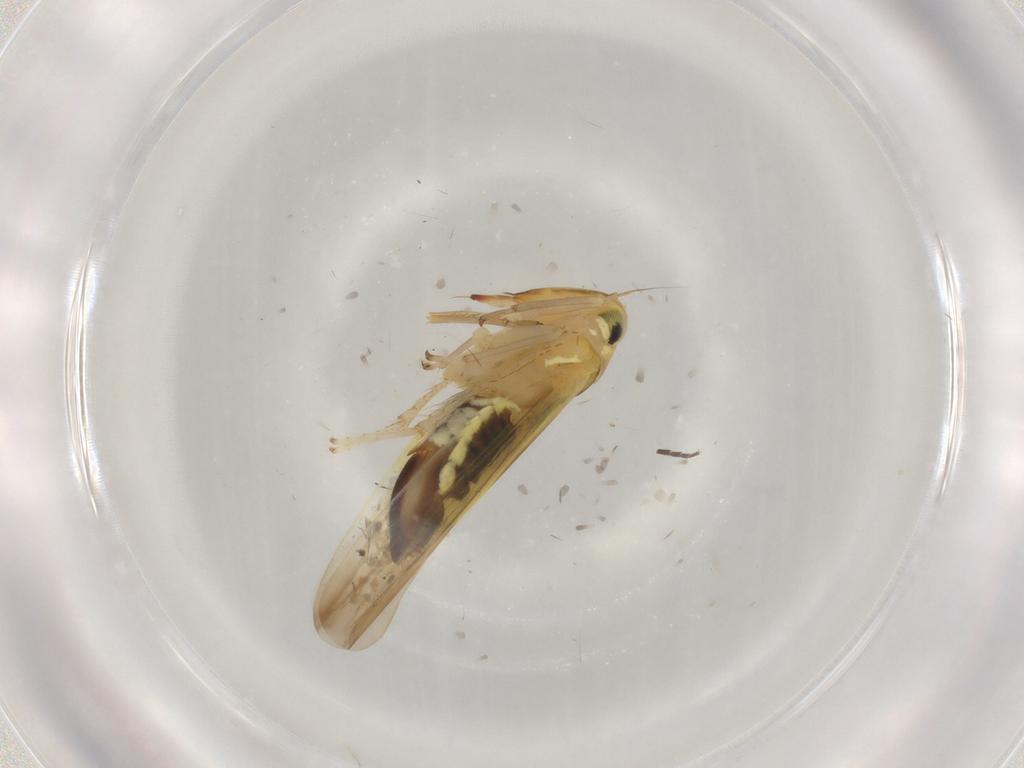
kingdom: Animalia
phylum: Arthropoda
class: Insecta
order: Hemiptera
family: Cicadellidae
